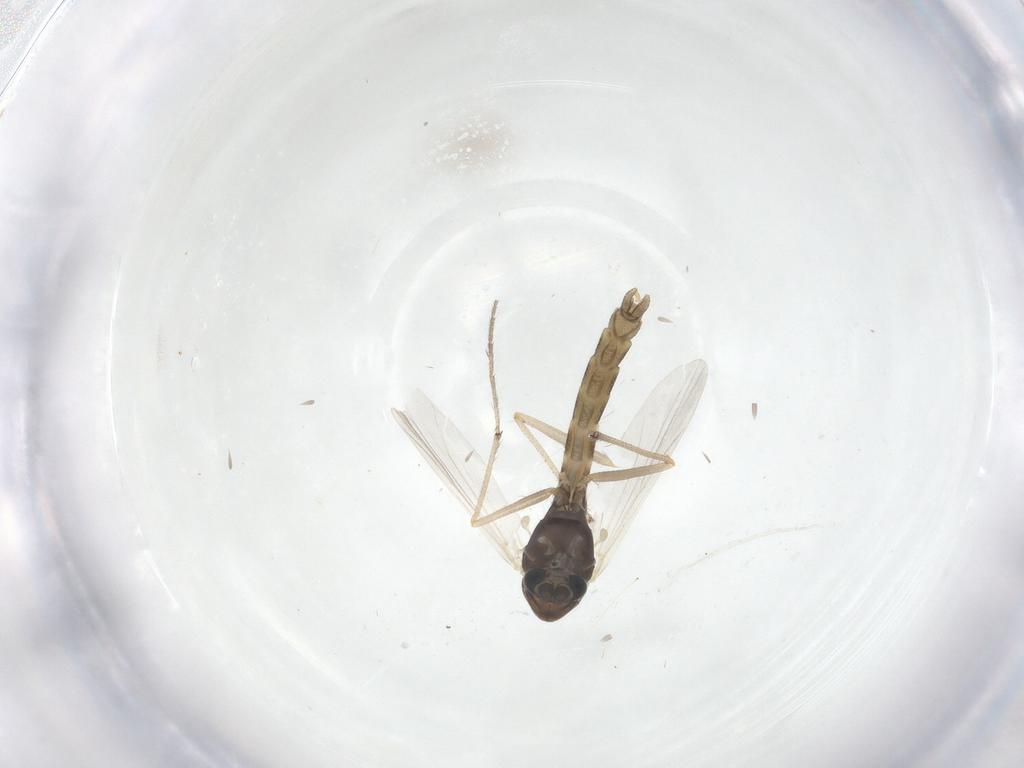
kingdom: Animalia
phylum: Arthropoda
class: Insecta
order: Diptera
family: Chironomidae
